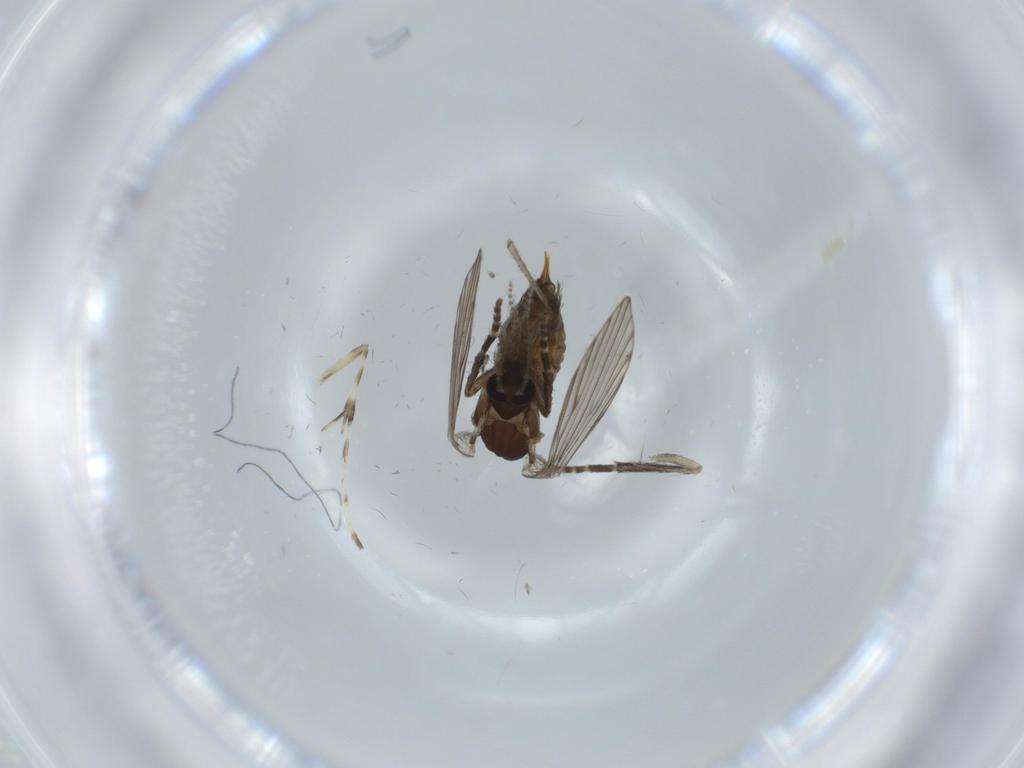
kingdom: Animalia
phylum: Arthropoda
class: Insecta
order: Diptera
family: Psychodidae
